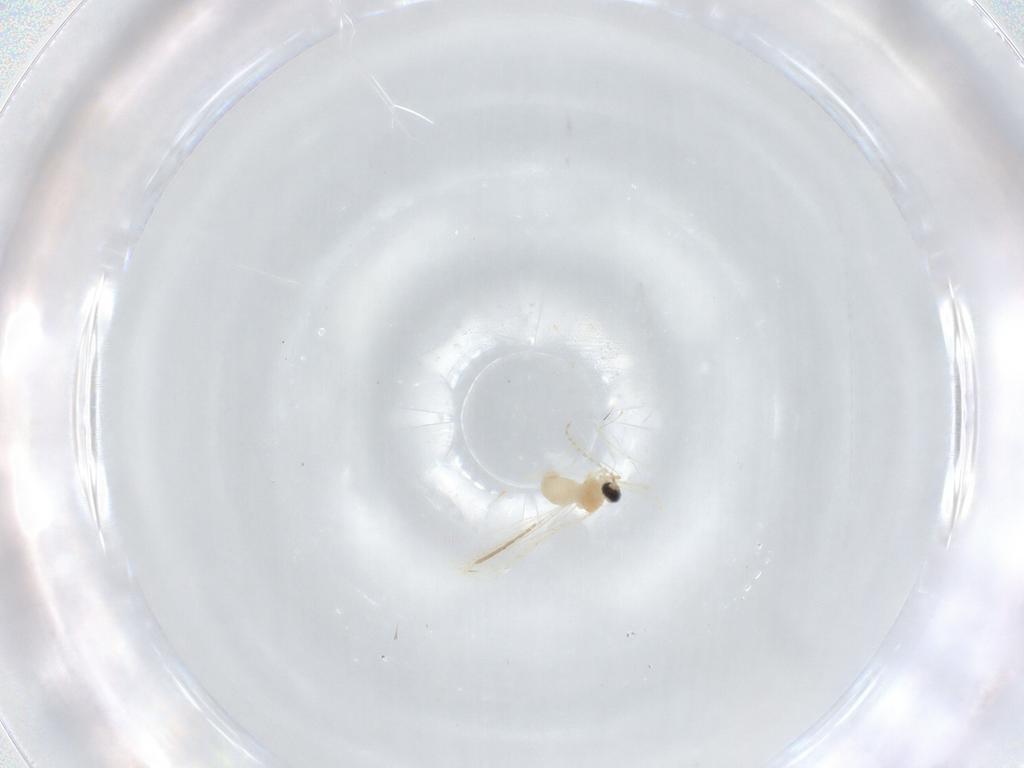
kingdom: Animalia
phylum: Arthropoda
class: Insecta
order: Diptera
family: Cecidomyiidae
